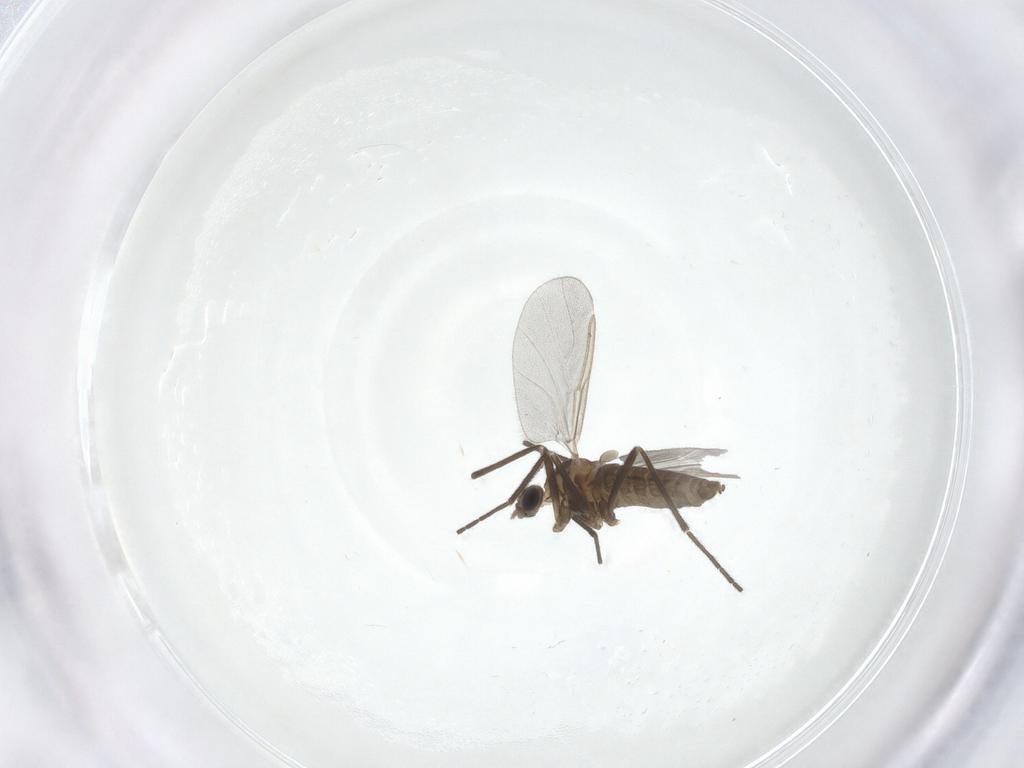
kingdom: Animalia
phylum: Arthropoda
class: Insecta
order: Diptera
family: Cecidomyiidae
